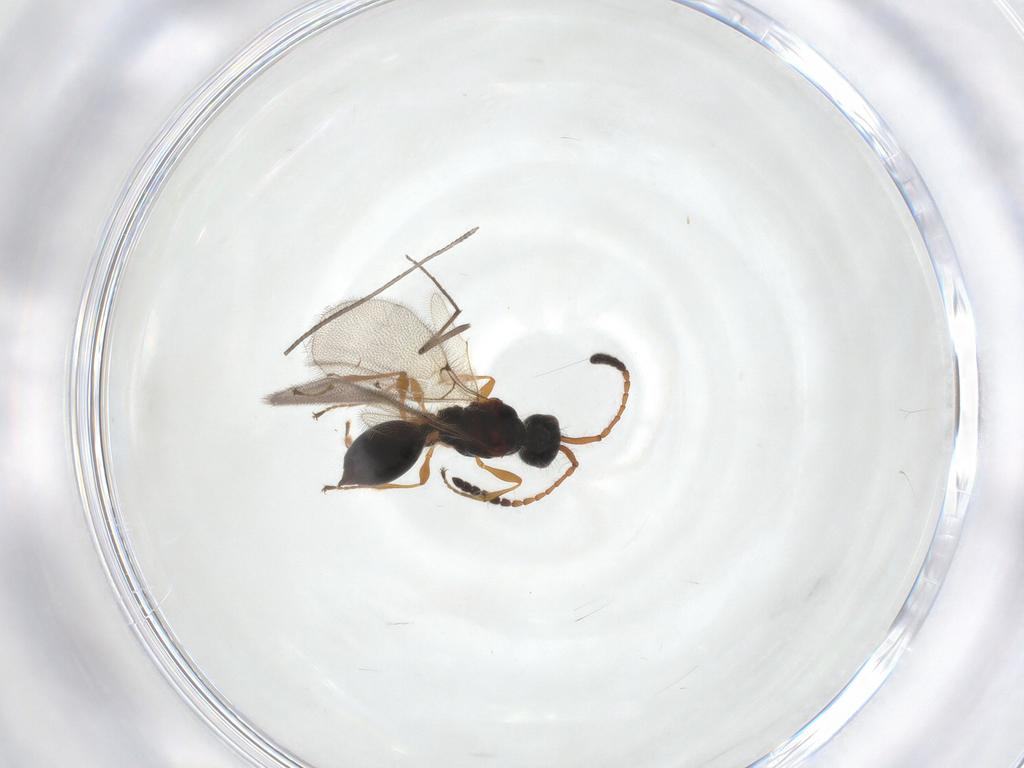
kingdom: Animalia
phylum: Arthropoda
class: Insecta
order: Hymenoptera
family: Diapriidae
